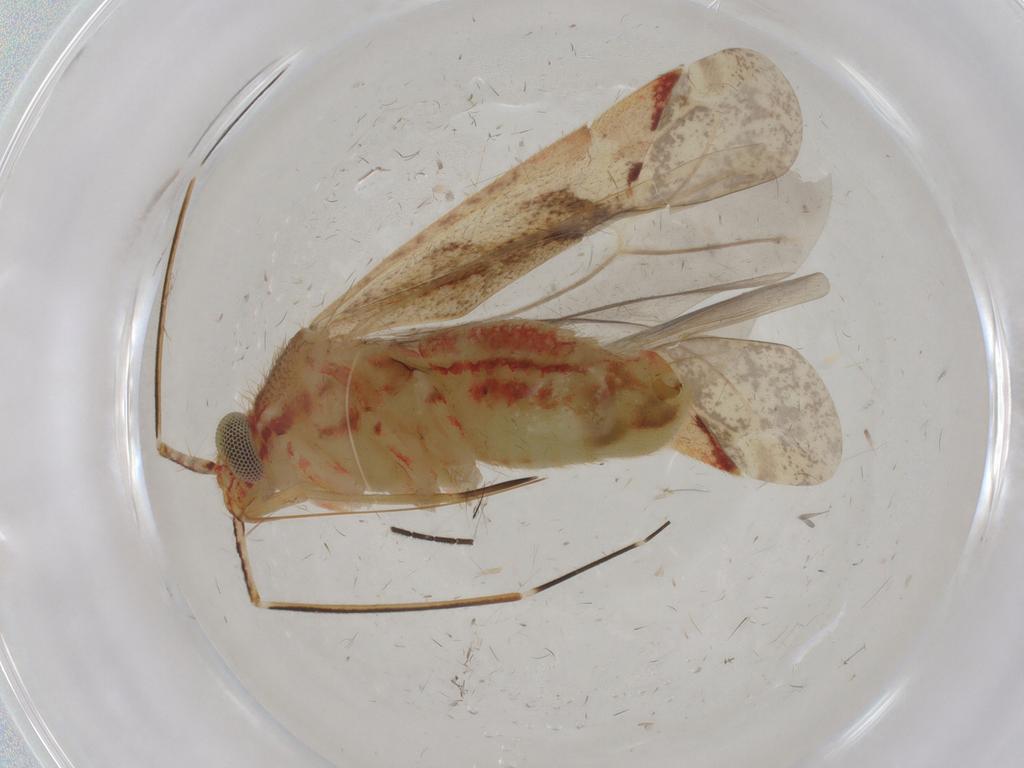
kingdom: Animalia
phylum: Arthropoda
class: Insecta
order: Hemiptera
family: Miridae
